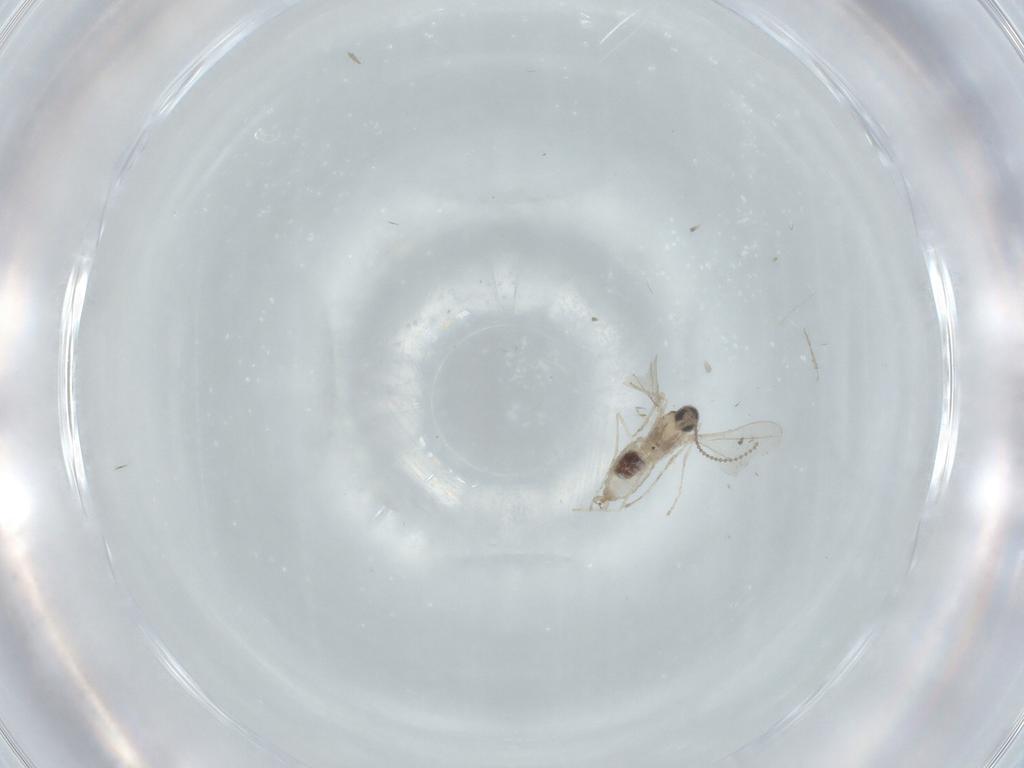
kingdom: Animalia
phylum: Arthropoda
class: Insecta
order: Diptera
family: Cecidomyiidae
